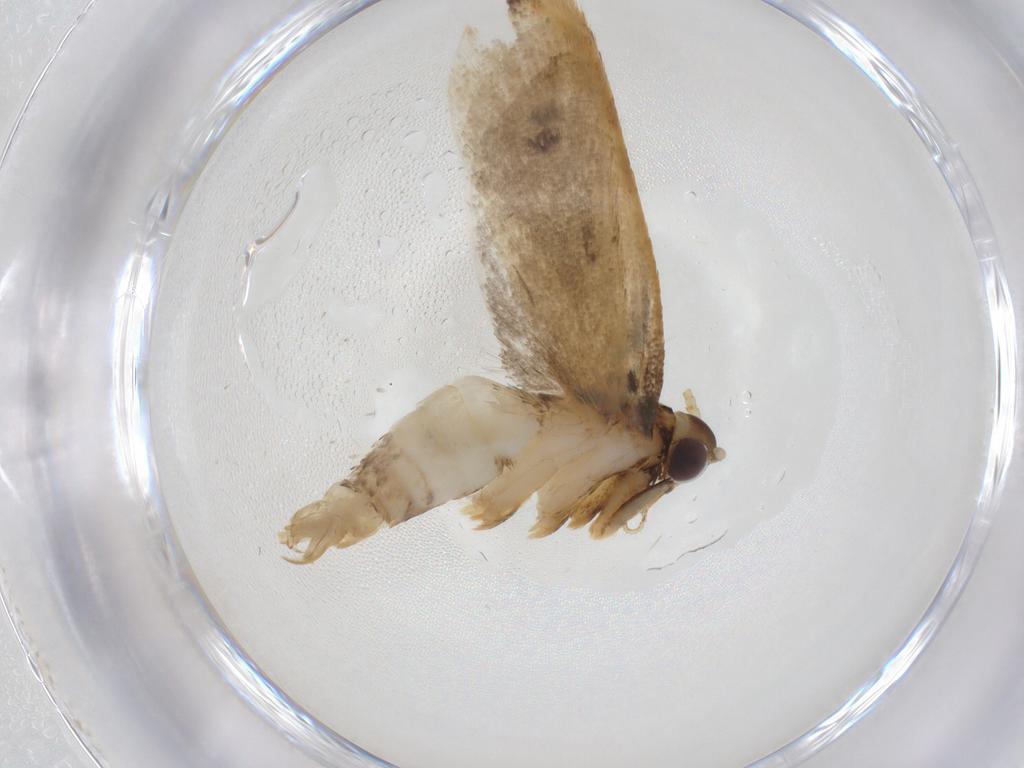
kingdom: Animalia
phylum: Arthropoda
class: Insecta
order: Lepidoptera
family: Lecithoceridae
